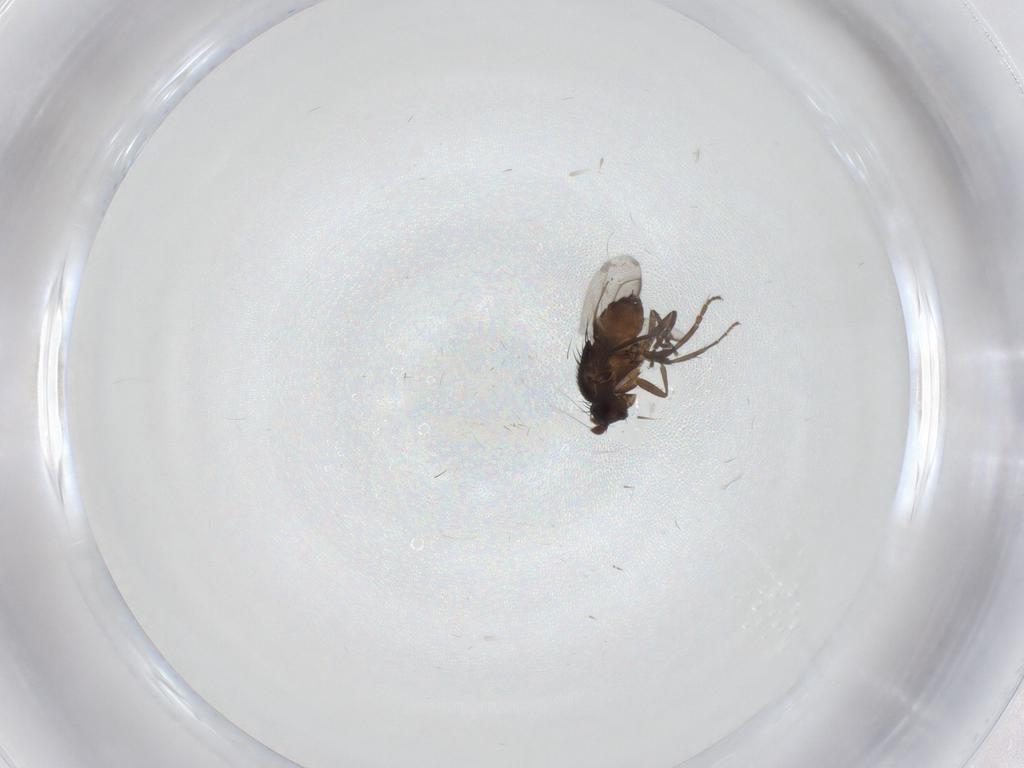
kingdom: Animalia
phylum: Arthropoda
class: Insecta
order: Diptera
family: Phoridae
